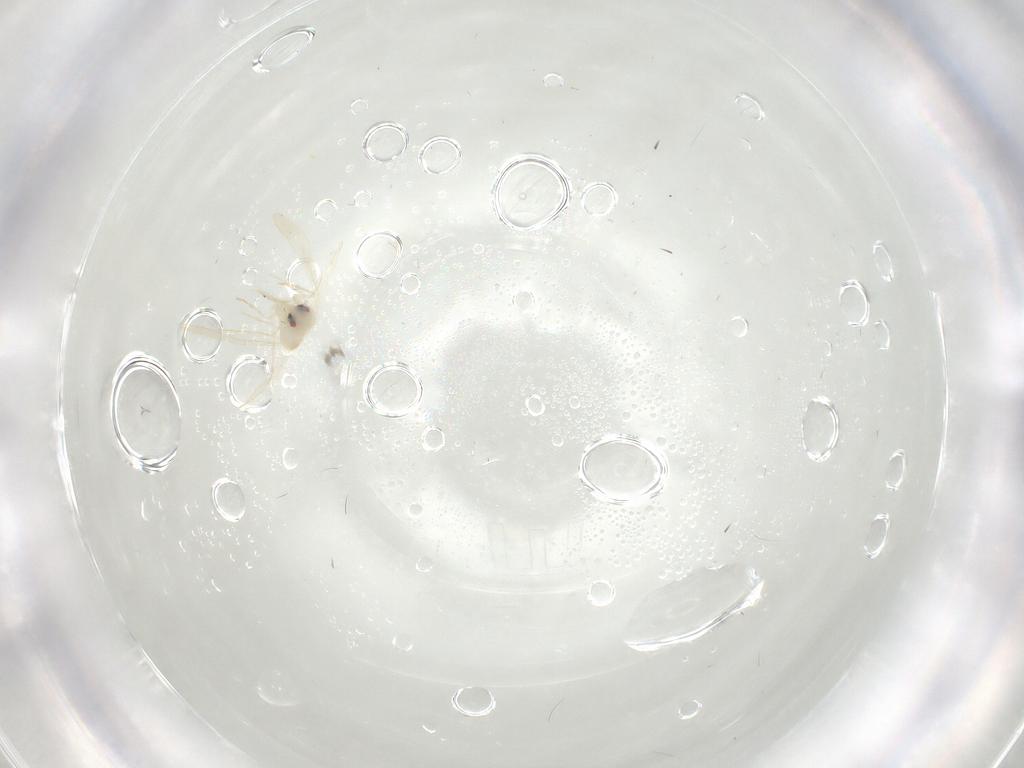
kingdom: Animalia
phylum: Arthropoda
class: Insecta
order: Hemiptera
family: Aleyrodidae
